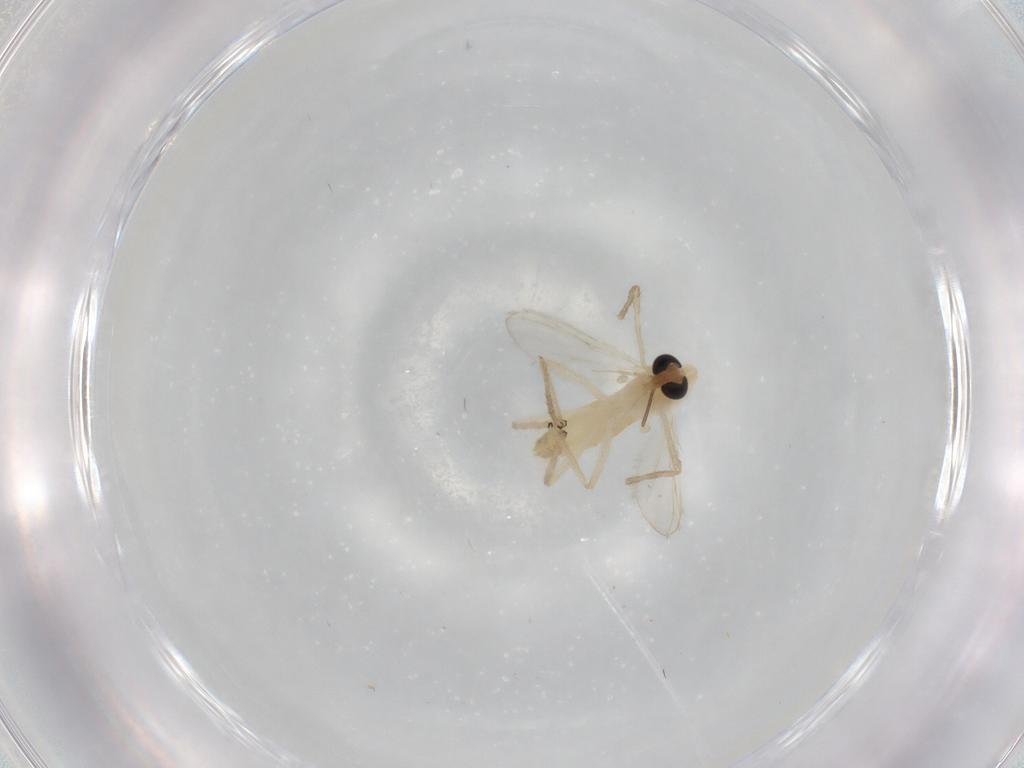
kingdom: Animalia
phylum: Arthropoda
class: Insecta
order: Diptera
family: Chironomidae
